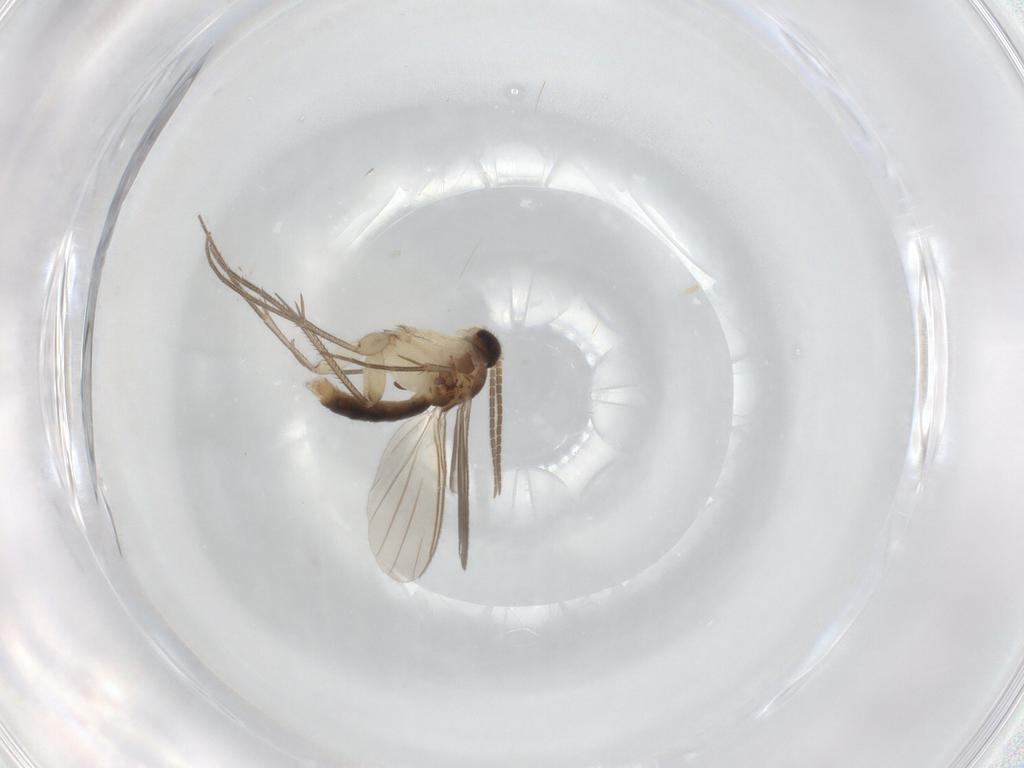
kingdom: Animalia
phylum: Arthropoda
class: Insecta
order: Diptera
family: Mycetophilidae
